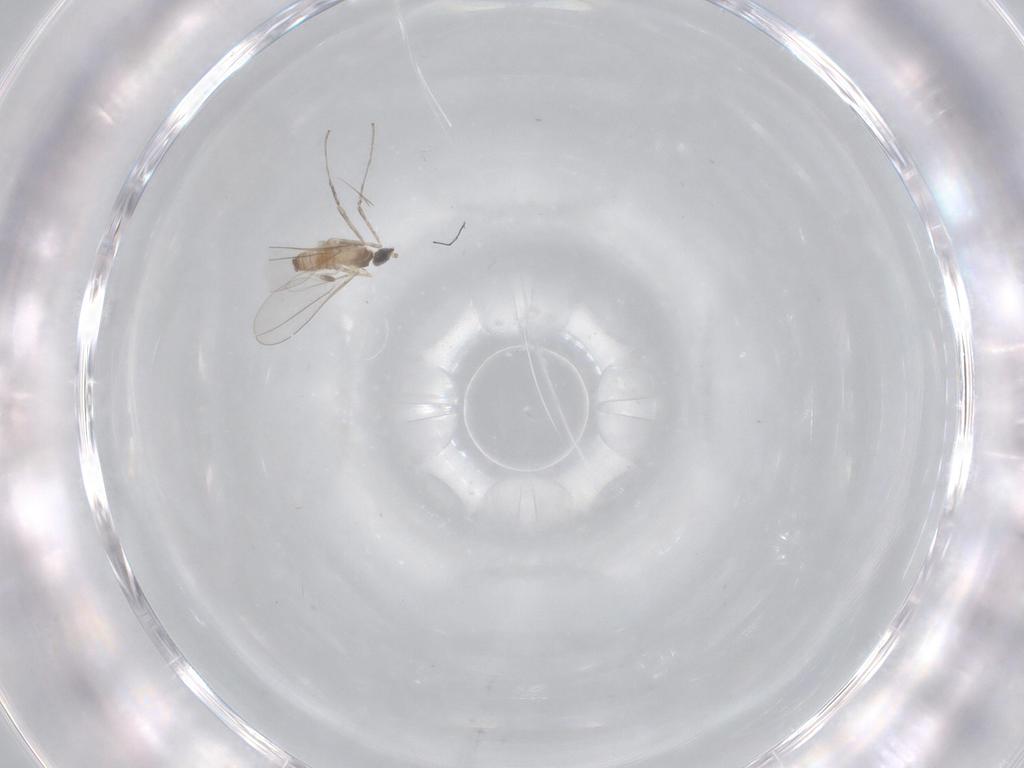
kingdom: Animalia
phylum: Arthropoda
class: Insecta
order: Diptera
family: Cecidomyiidae
